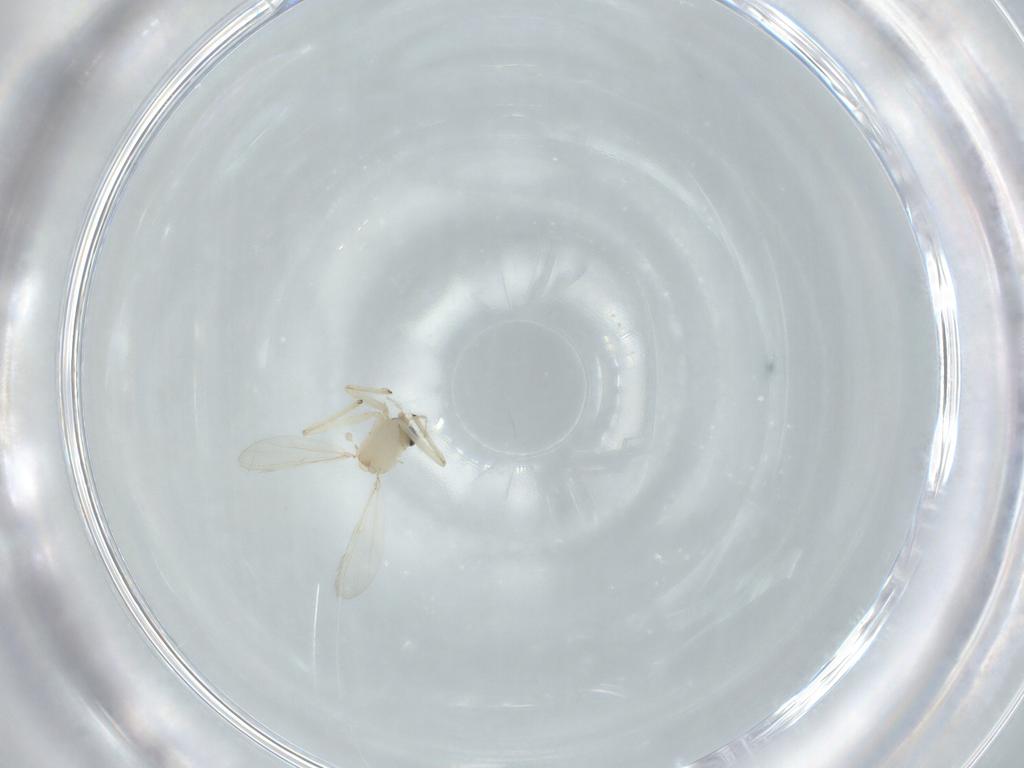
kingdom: Animalia
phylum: Arthropoda
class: Insecta
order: Diptera
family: Chironomidae
